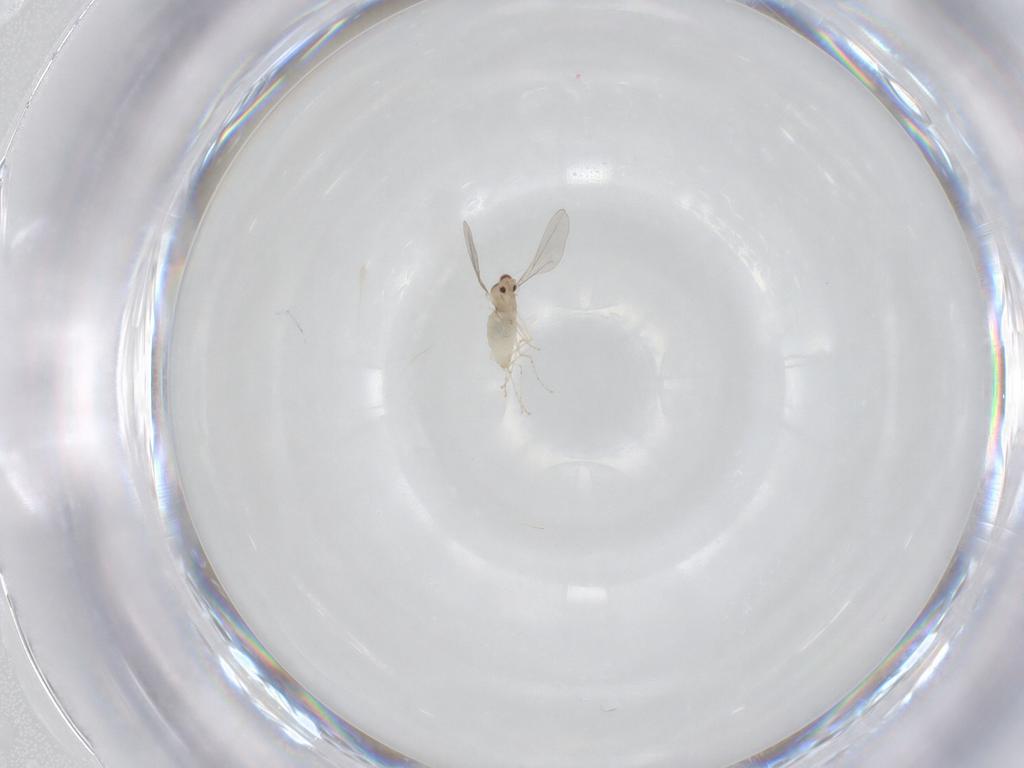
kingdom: Animalia
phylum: Arthropoda
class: Insecta
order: Diptera
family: Cecidomyiidae
